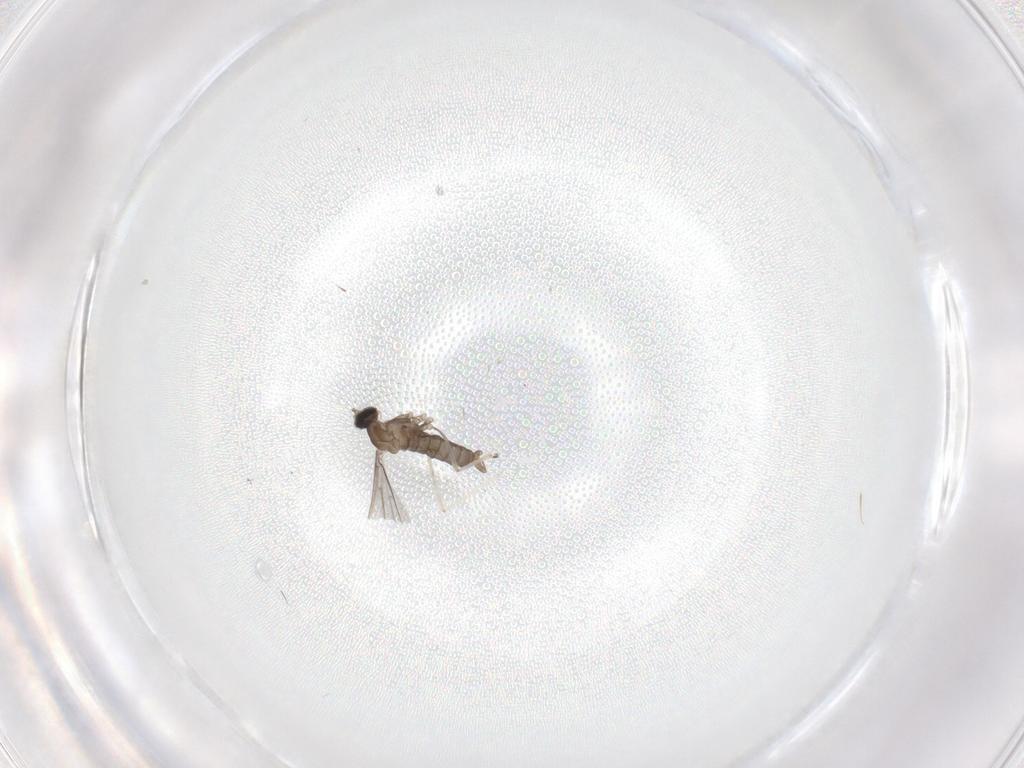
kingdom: Animalia
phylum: Arthropoda
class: Insecta
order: Diptera
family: Cecidomyiidae
